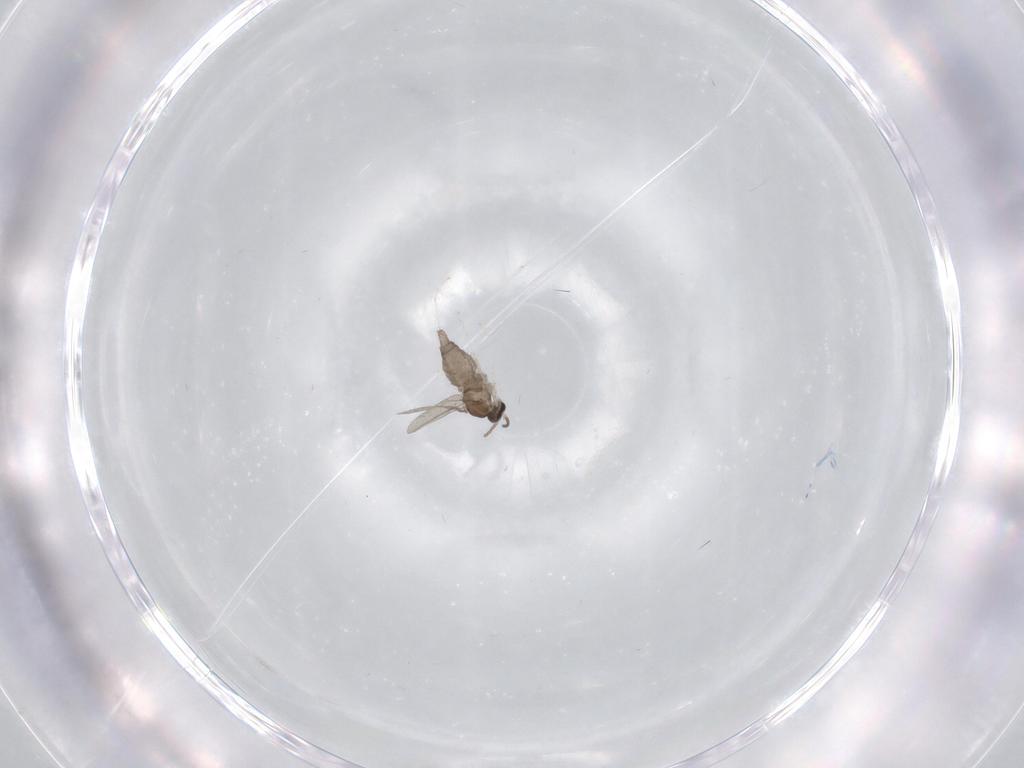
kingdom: Animalia
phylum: Arthropoda
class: Insecta
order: Diptera
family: Cecidomyiidae
